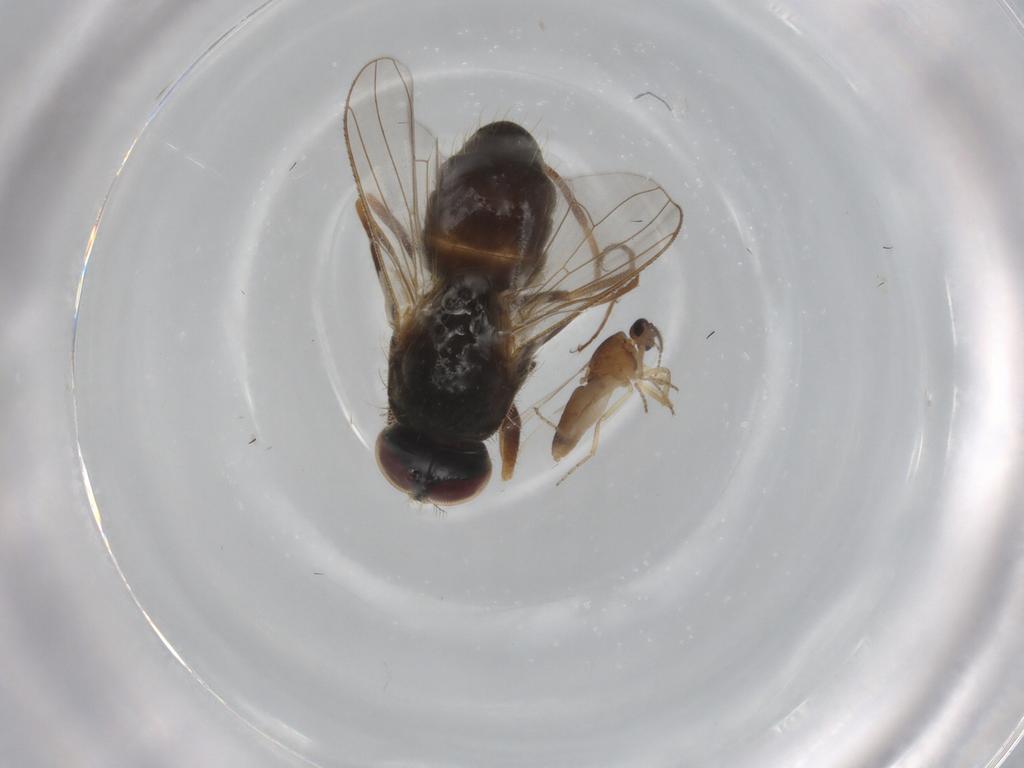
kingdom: Animalia
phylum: Arthropoda
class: Insecta
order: Diptera
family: Ceratopogonidae
